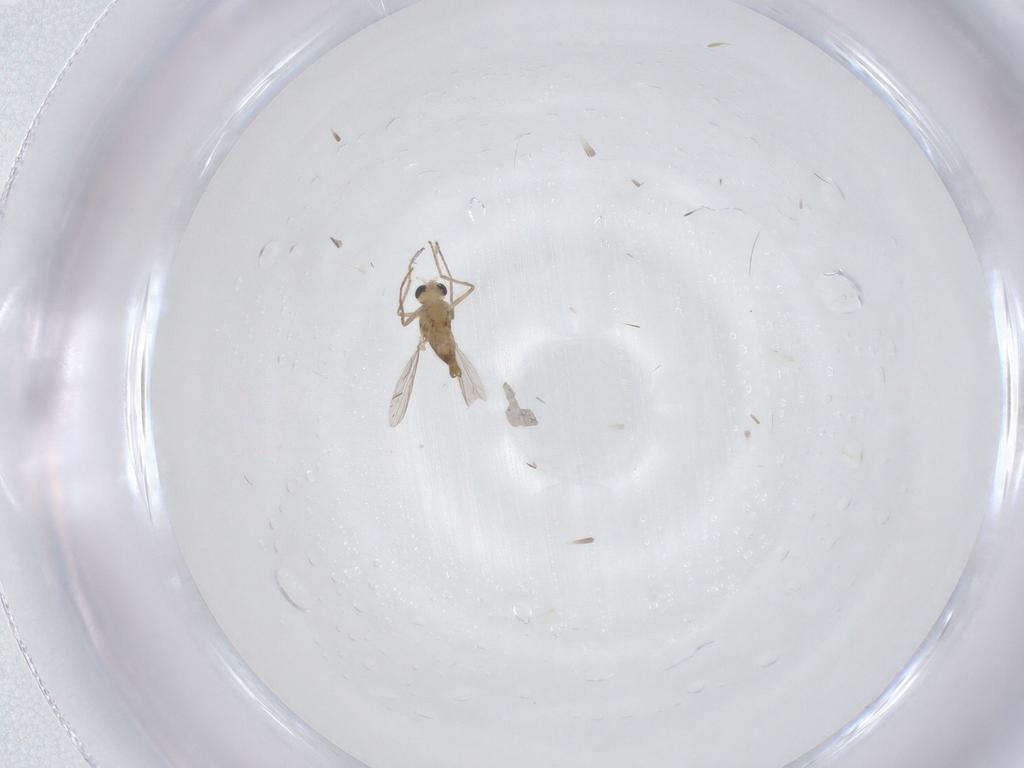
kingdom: Animalia
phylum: Arthropoda
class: Insecta
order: Diptera
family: Chironomidae
